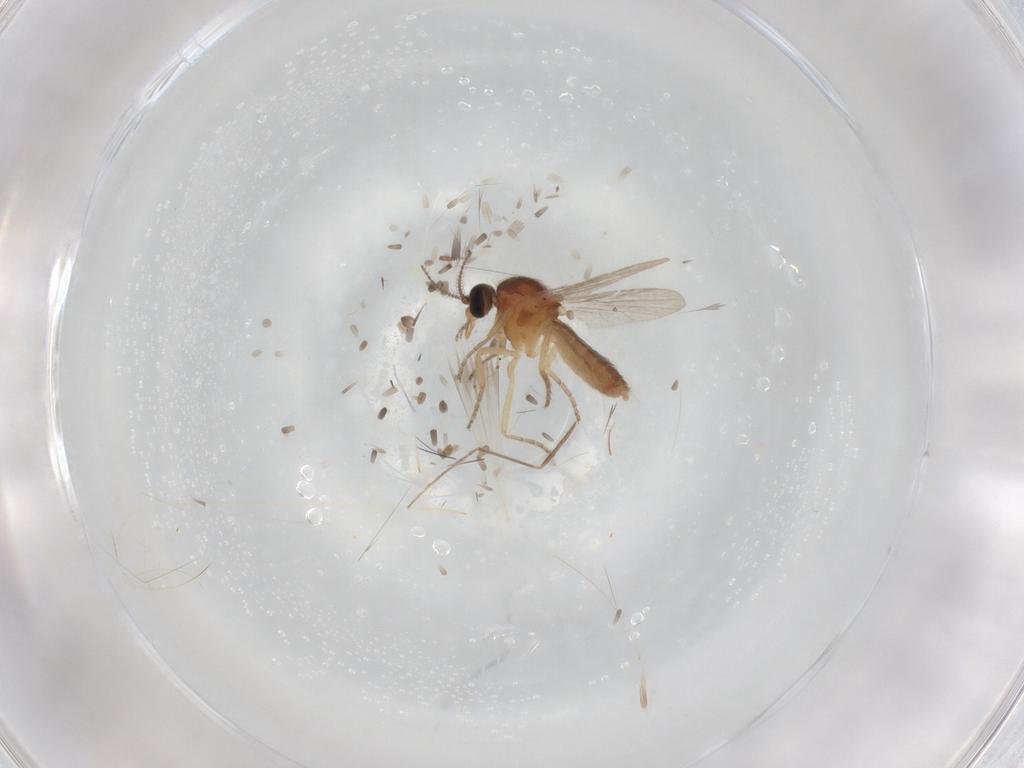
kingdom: Animalia
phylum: Arthropoda
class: Insecta
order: Diptera
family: Cecidomyiidae
